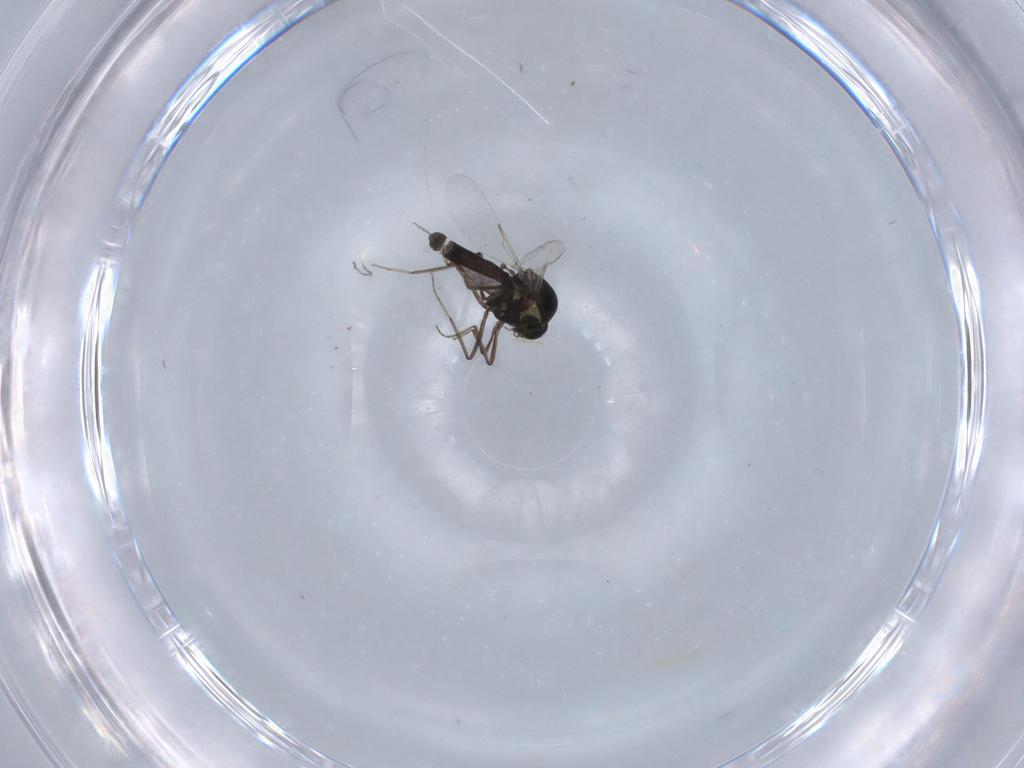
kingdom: Animalia
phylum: Arthropoda
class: Insecta
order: Diptera
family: Ceratopogonidae
